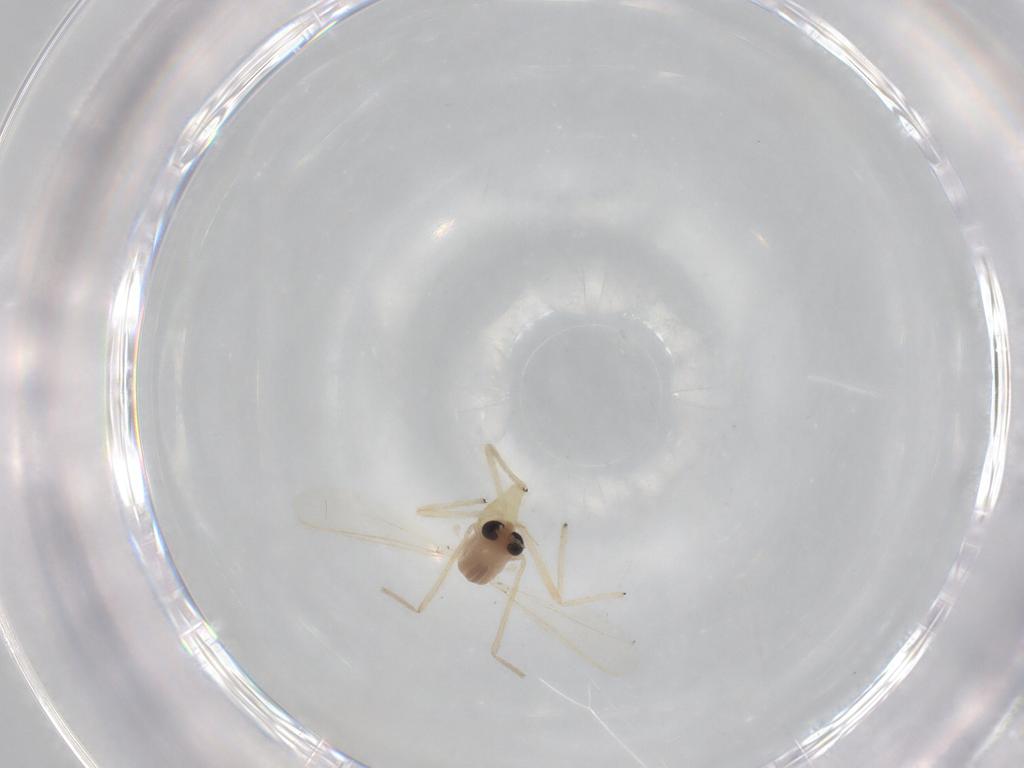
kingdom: Animalia
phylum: Arthropoda
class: Insecta
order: Diptera
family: Chironomidae
